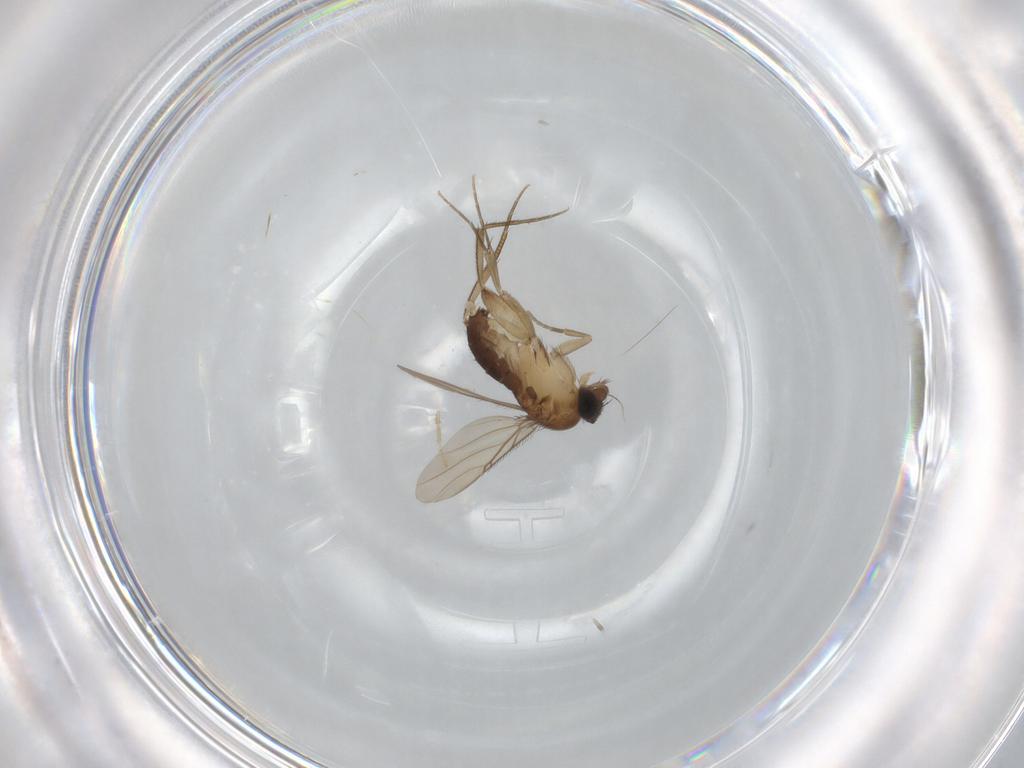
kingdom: Animalia
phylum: Arthropoda
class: Insecta
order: Diptera
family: Phoridae
